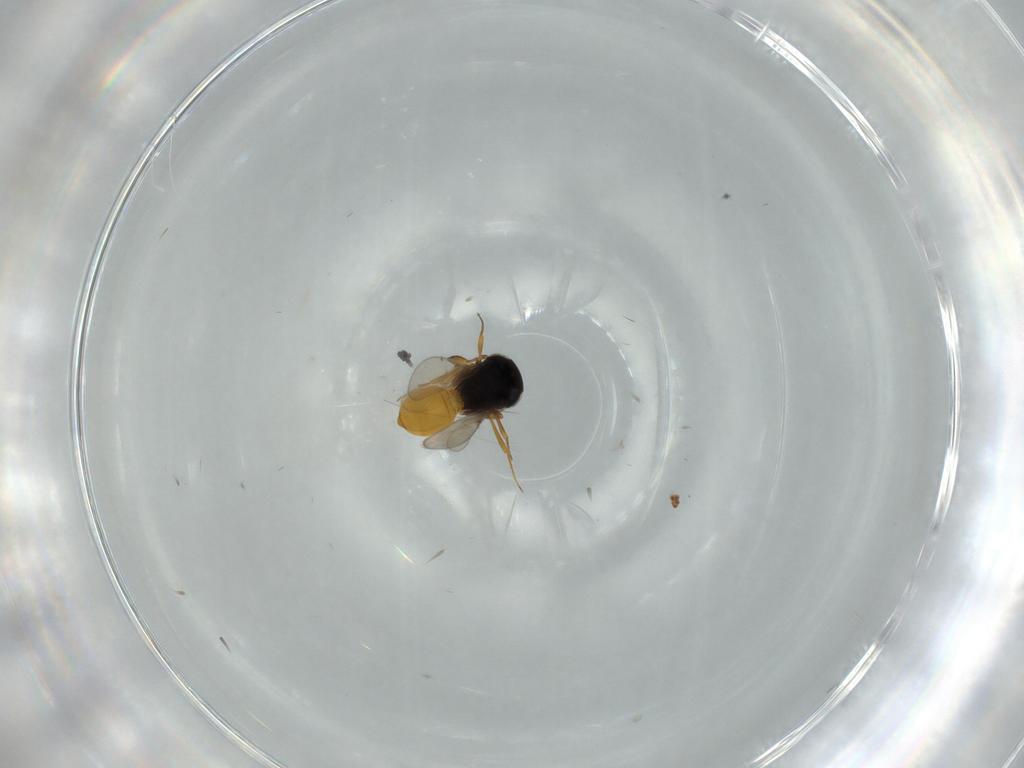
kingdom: Animalia
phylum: Arthropoda
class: Insecta
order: Hymenoptera
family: Scelionidae
